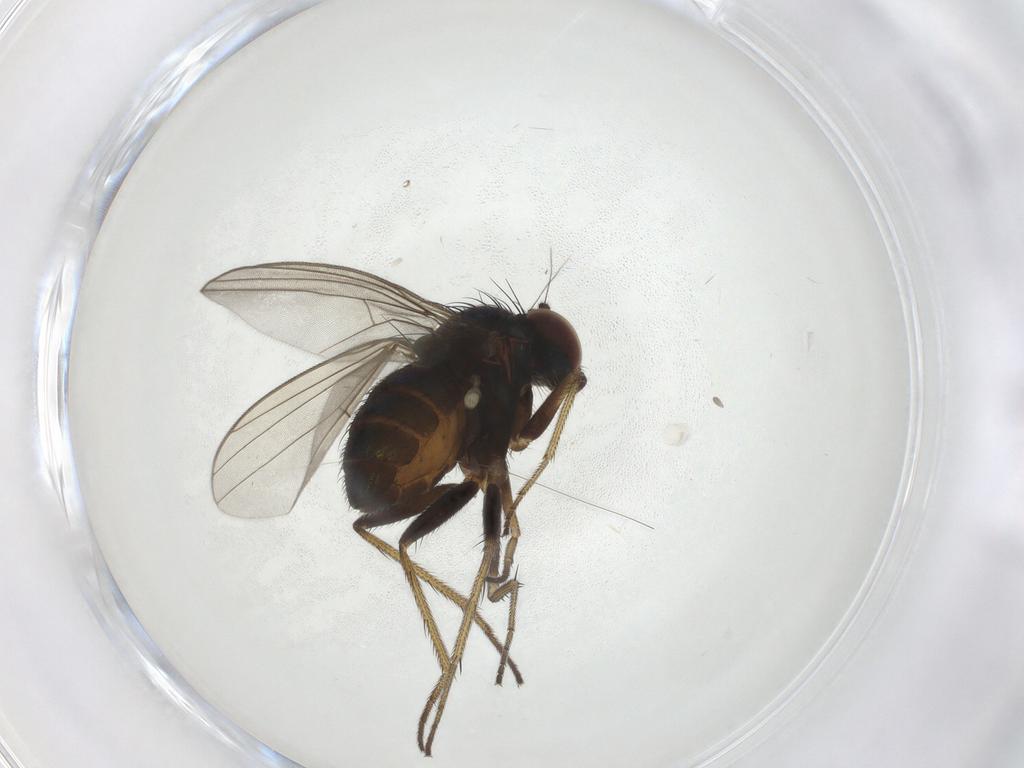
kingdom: Animalia
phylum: Arthropoda
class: Insecta
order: Diptera
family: Dolichopodidae
